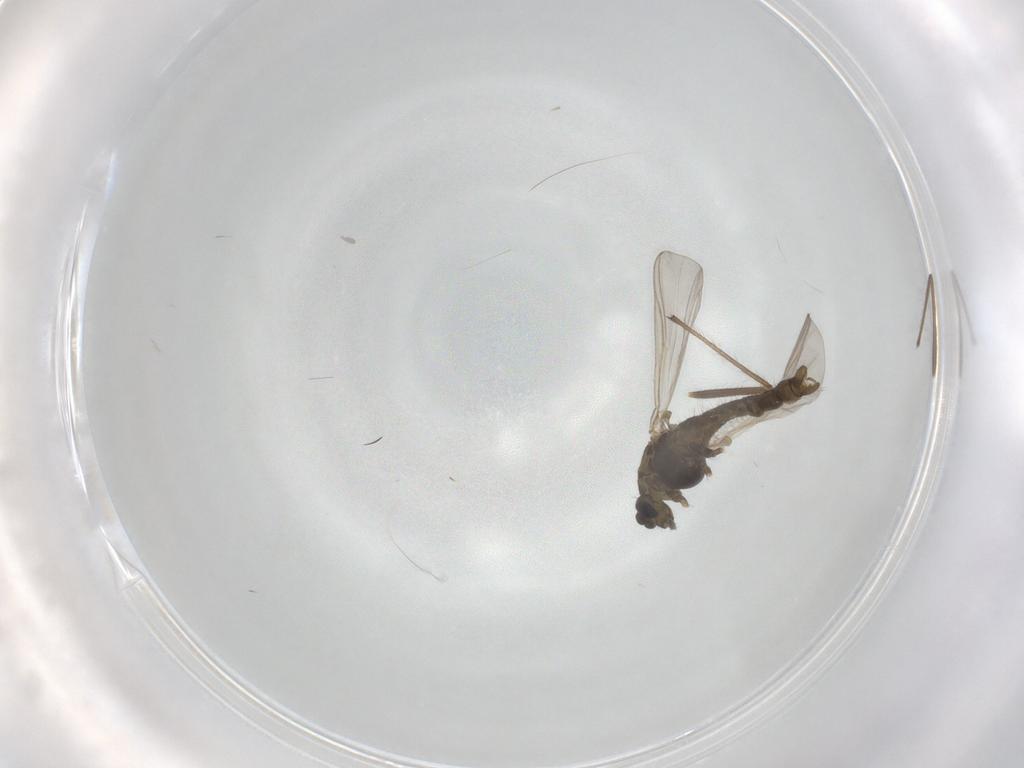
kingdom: Animalia
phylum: Arthropoda
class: Insecta
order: Diptera
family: Chironomidae
